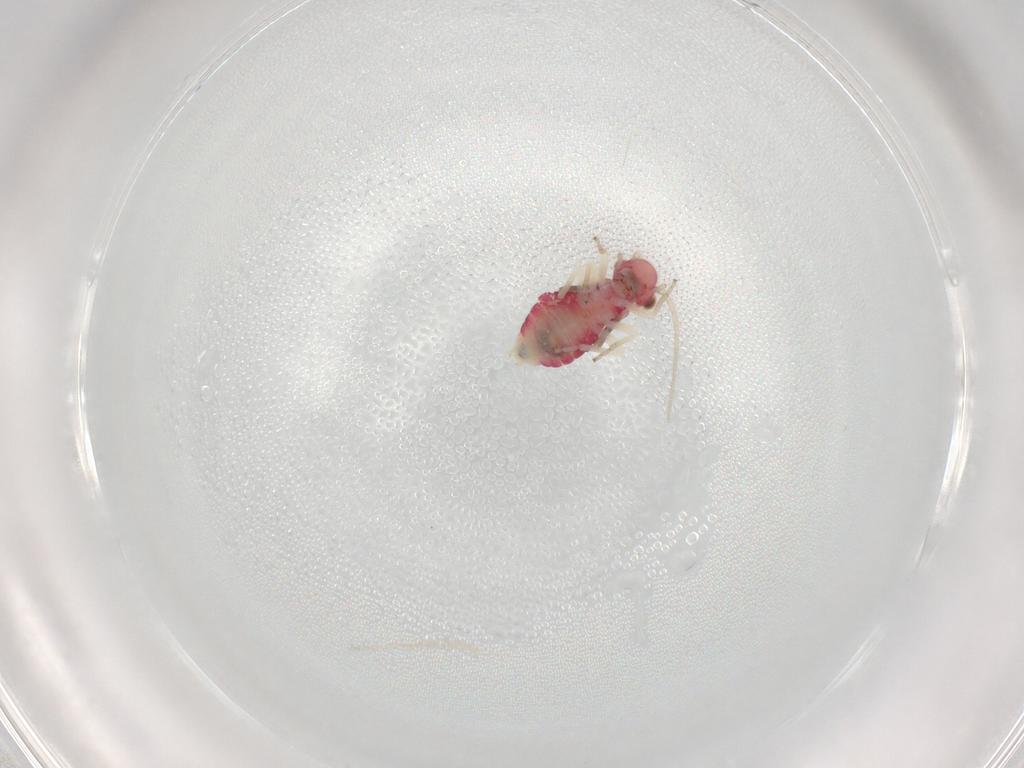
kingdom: Animalia
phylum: Arthropoda
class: Insecta
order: Psocodea
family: Caeciliusidae
